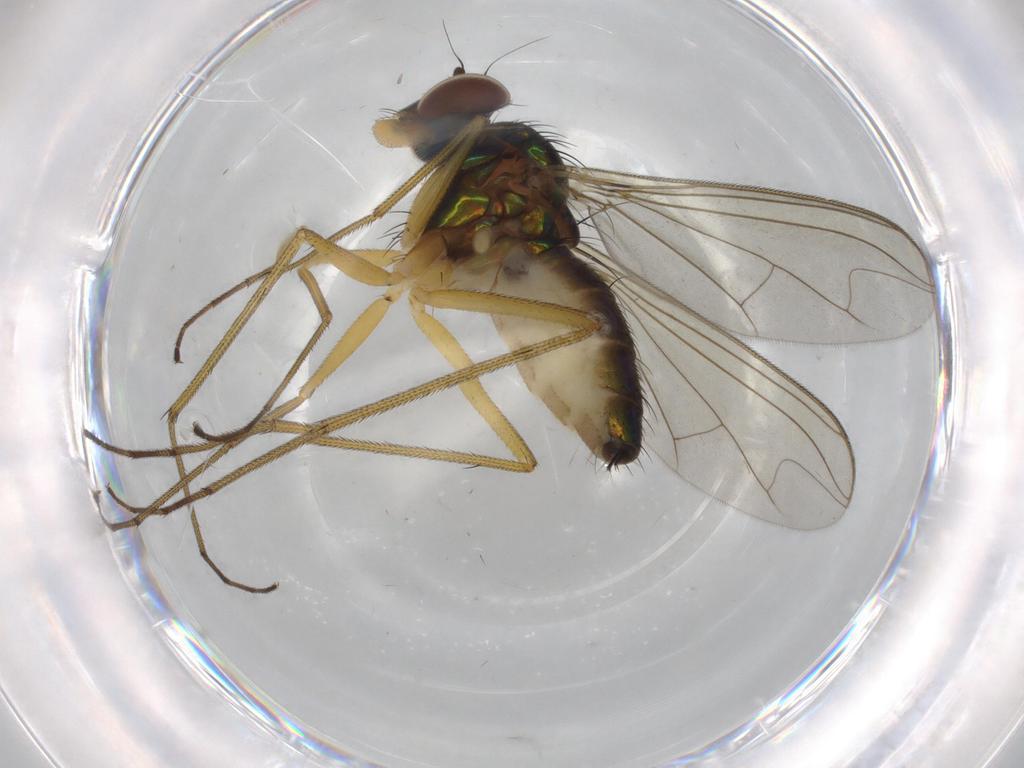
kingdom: Animalia
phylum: Arthropoda
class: Insecta
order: Diptera
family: Dolichopodidae
